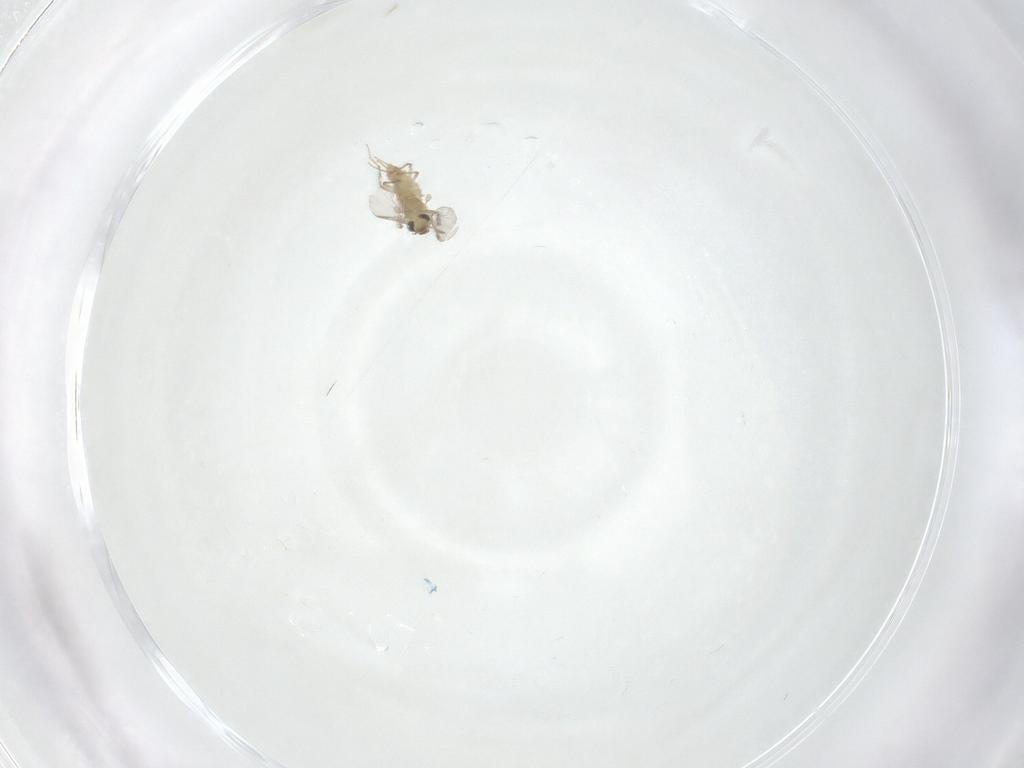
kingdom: Animalia
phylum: Arthropoda
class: Insecta
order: Diptera
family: Chironomidae
